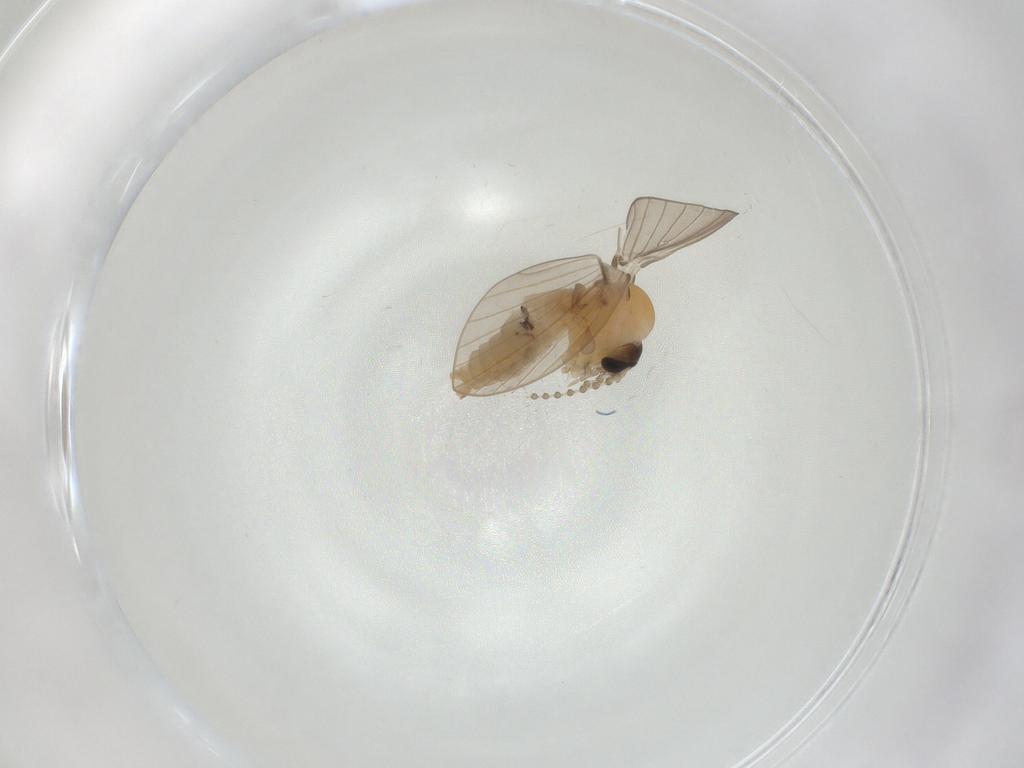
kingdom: Animalia
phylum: Arthropoda
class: Insecta
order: Diptera
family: Psychodidae
